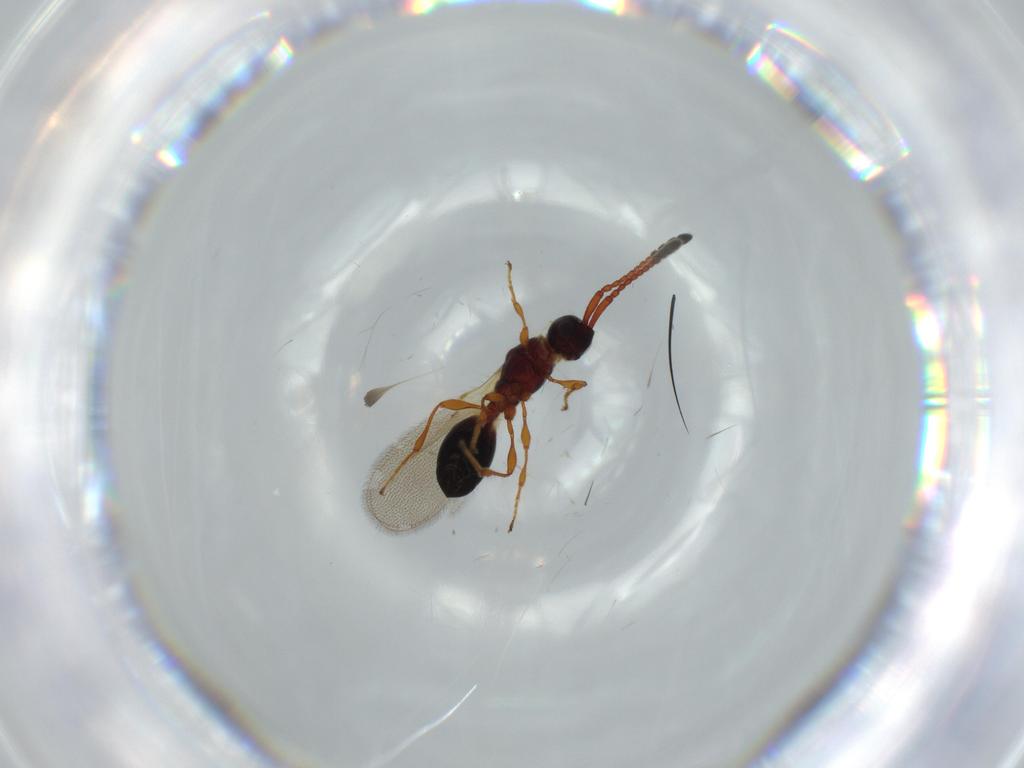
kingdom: Animalia
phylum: Arthropoda
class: Insecta
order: Hymenoptera
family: Diapriidae
